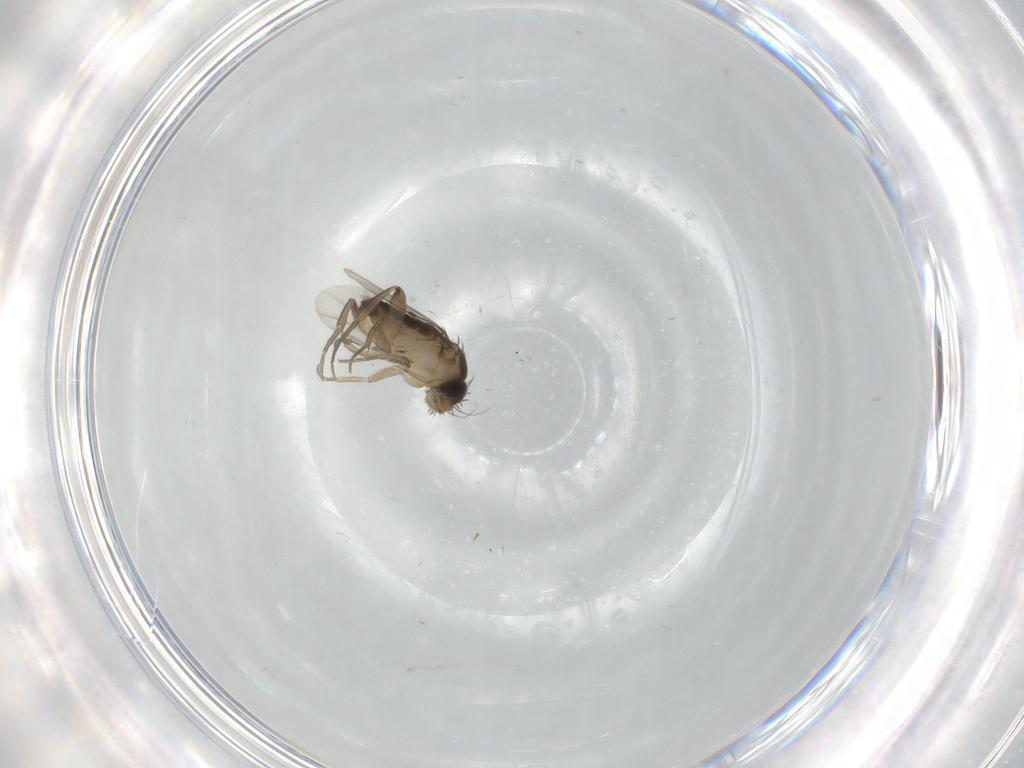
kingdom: Animalia
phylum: Arthropoda
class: Insecta
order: Diptera
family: Phoridae
